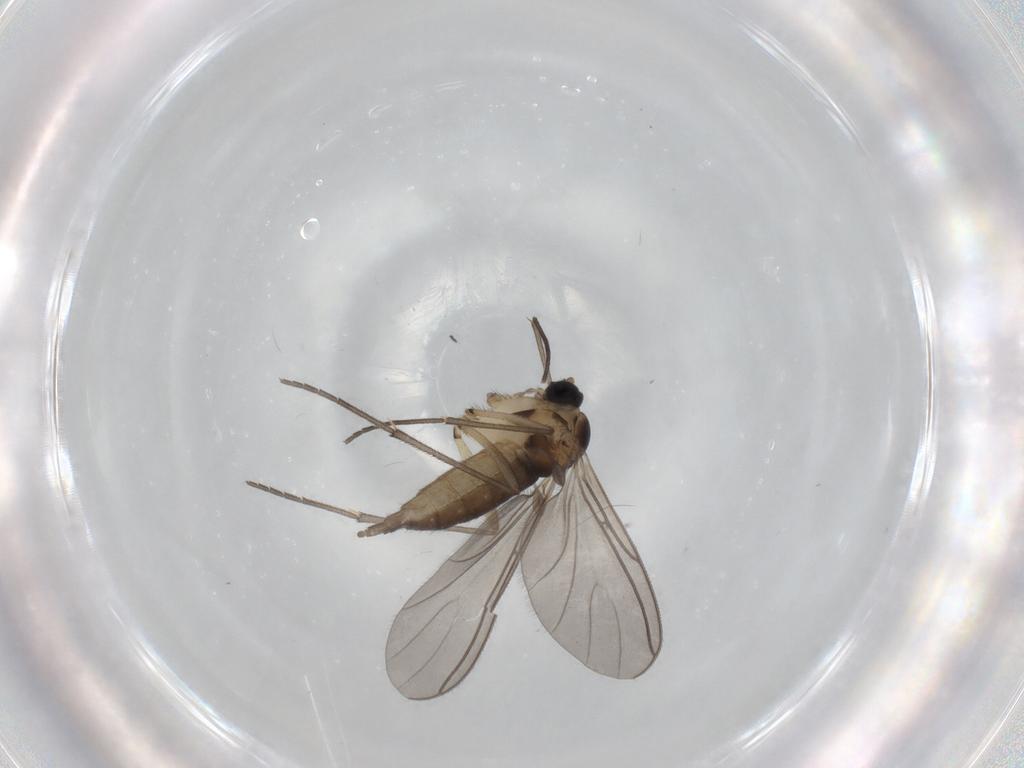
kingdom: Animalia
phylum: Arthropoda
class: Insecta
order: Diptera
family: Sciaridae
